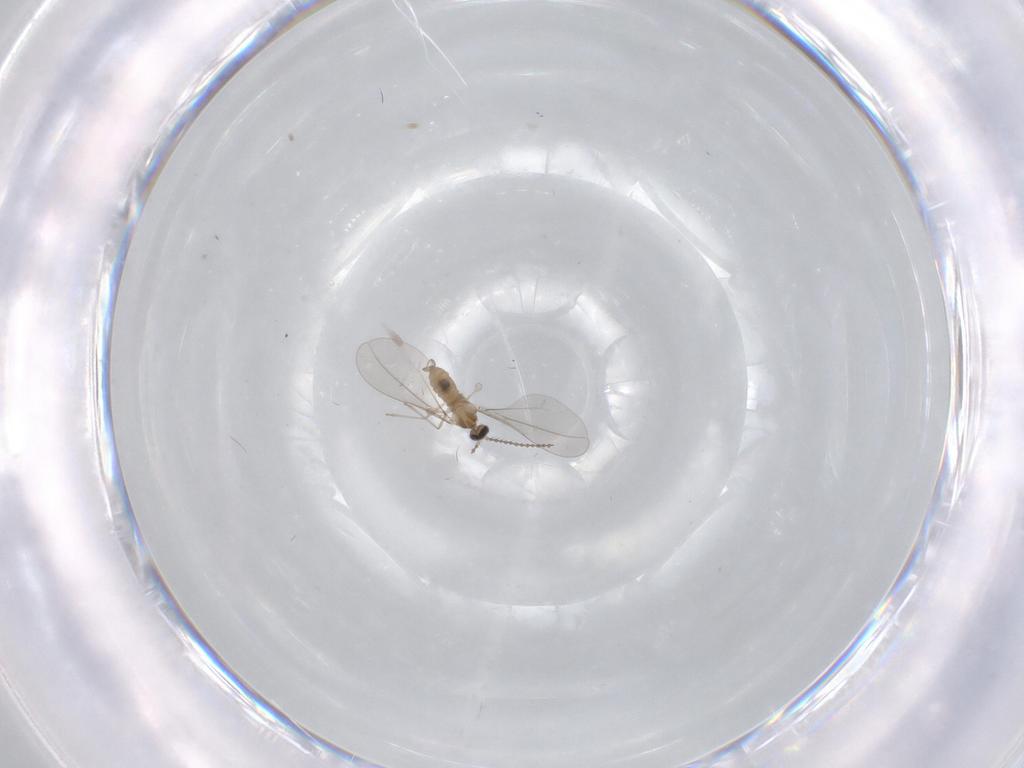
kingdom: Animalia
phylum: Arthropoda
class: Insecta
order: Diptera
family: Cecidomyiidae
